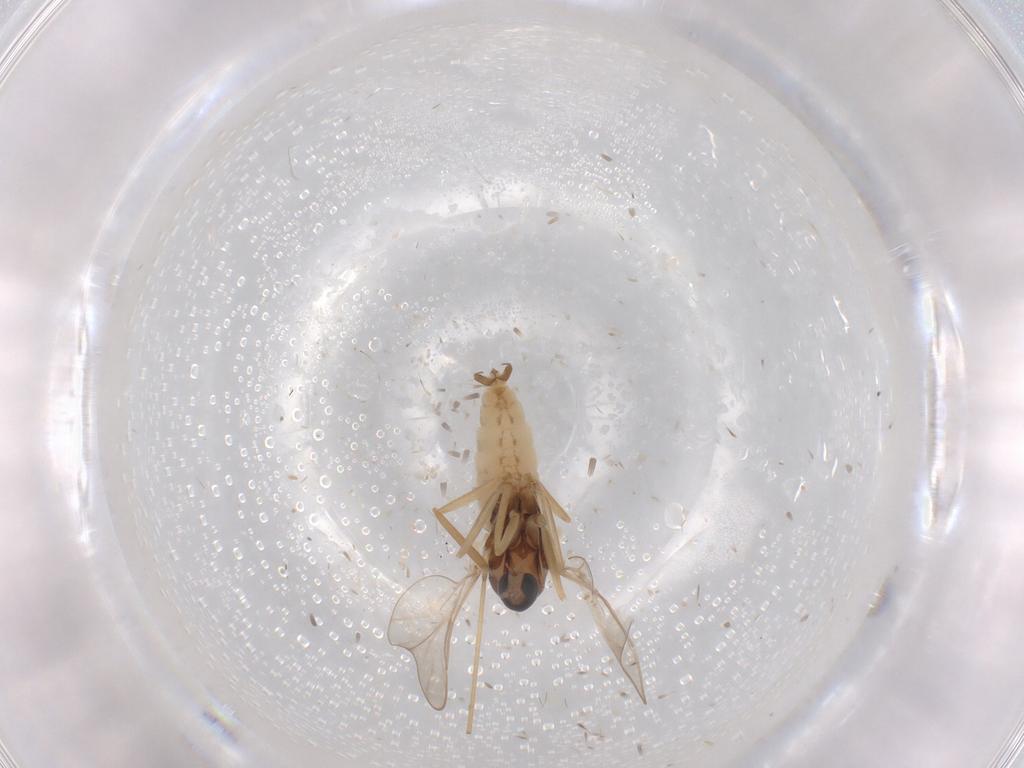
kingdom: Animalia
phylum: Arthropoda
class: Insecta
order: Diptera
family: Cecidomyiidae
